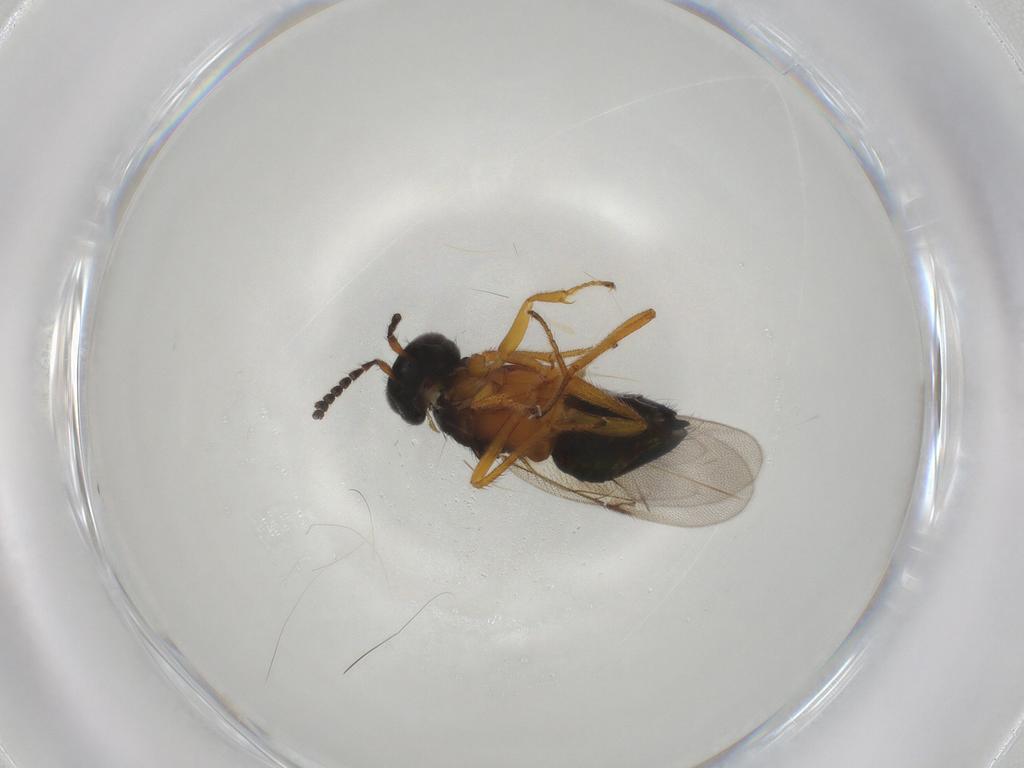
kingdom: Animalia
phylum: Arthropoda
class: Insecta
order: Hymenoptera
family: Encyrtidae
